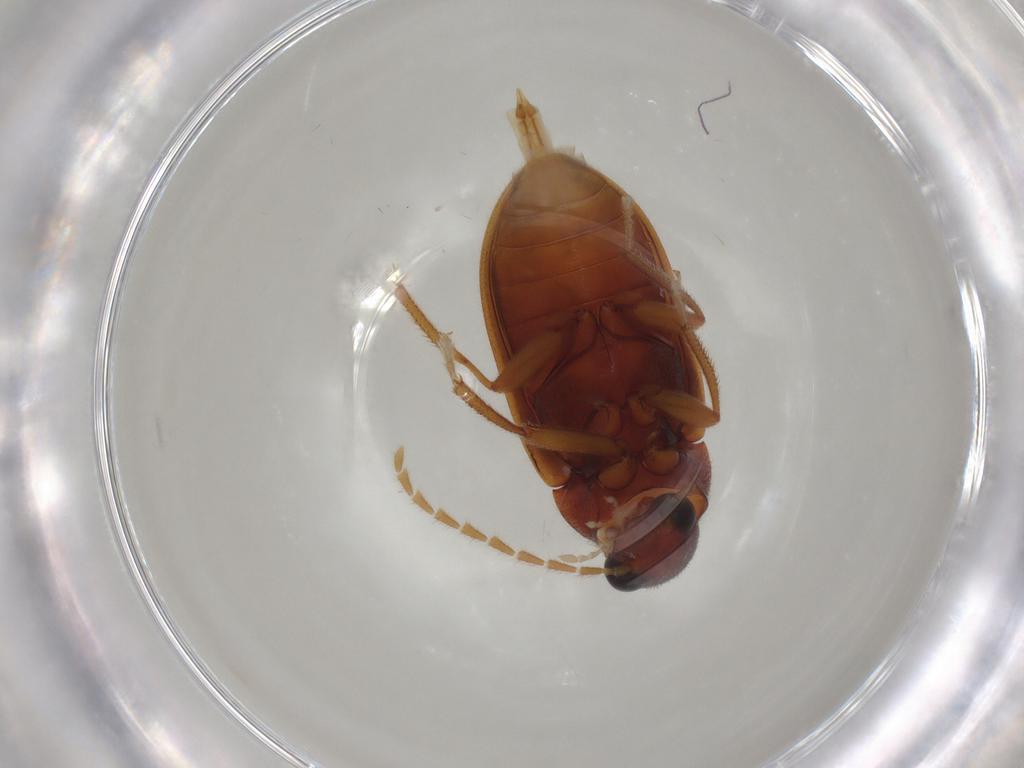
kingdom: Animalia
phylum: Arthropoda
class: Insecta
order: Coleoptera
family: Ptilodactylidae
